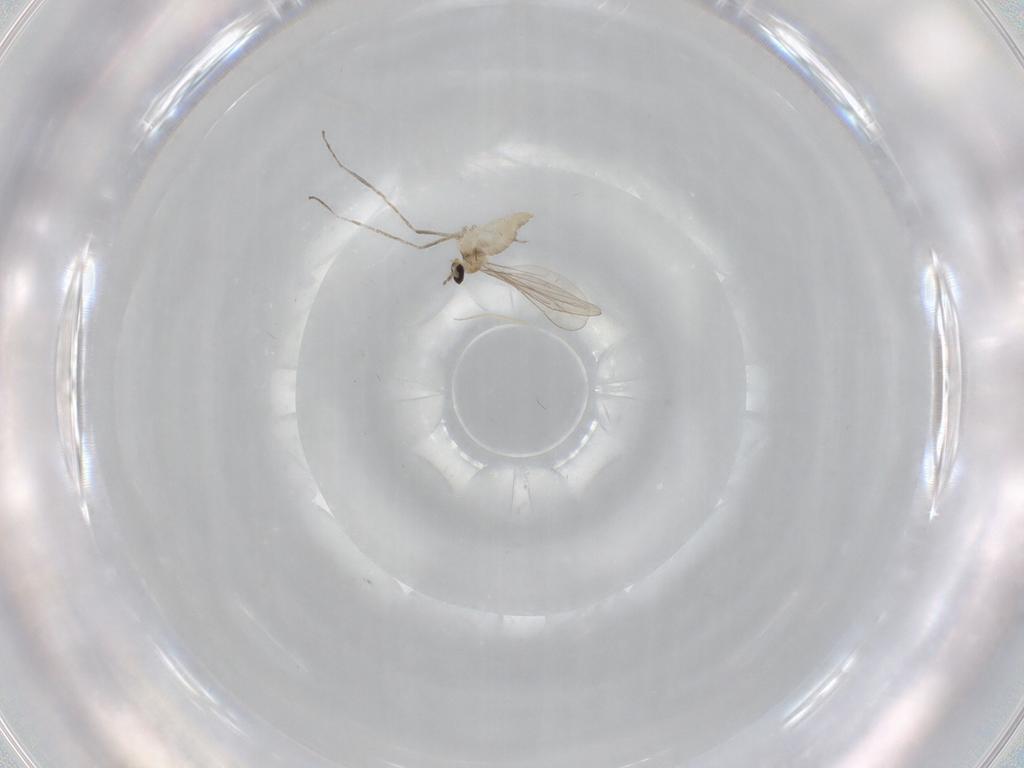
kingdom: Animalia
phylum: Arthropoda
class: Insecta
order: Diptera
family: Cecidomyiidae
